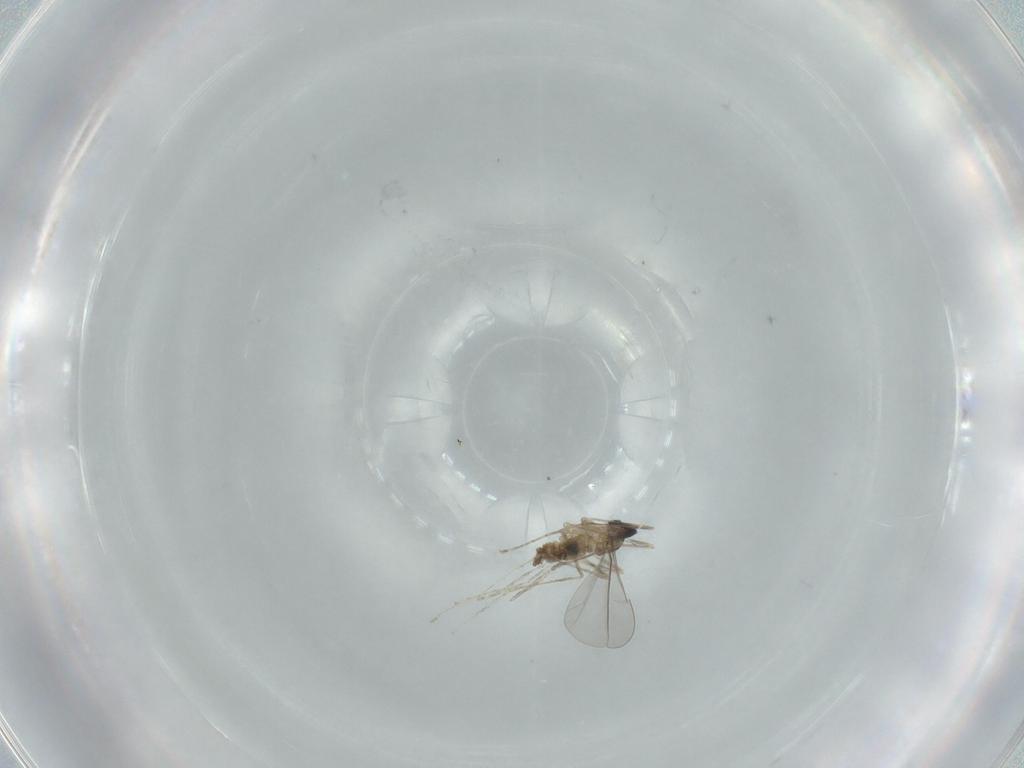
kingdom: Animalia
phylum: Arthropoda
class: Insecta
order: Diptera
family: Cecidomyiidae
